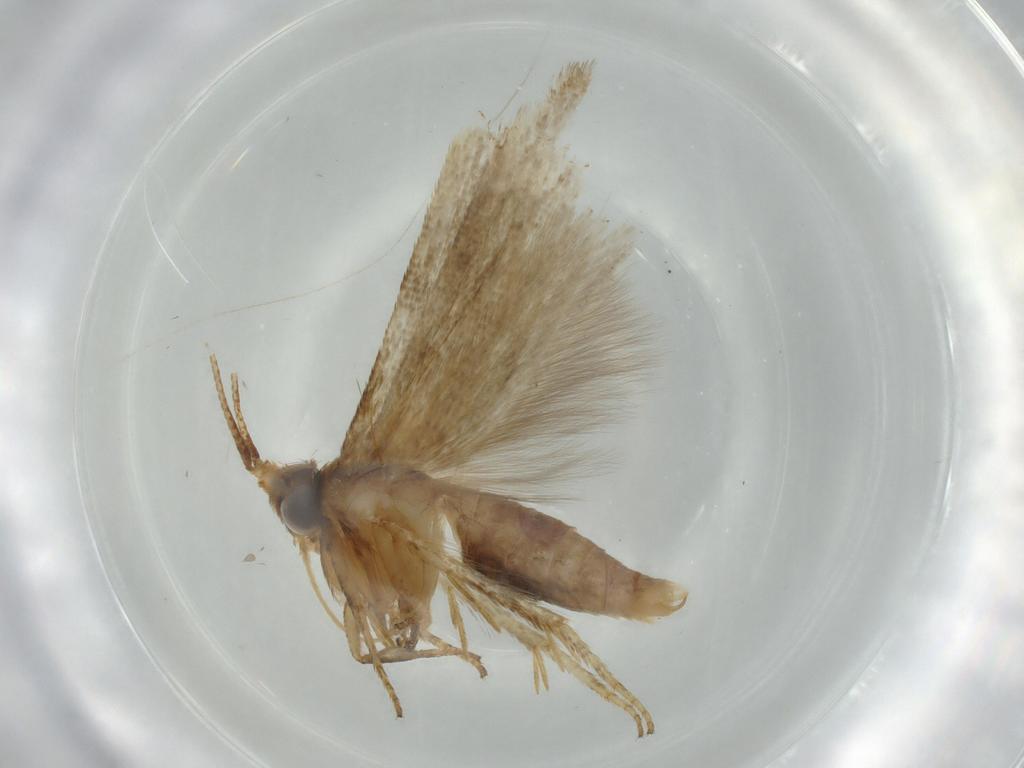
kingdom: Animalia
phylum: Arthropoda
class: Insecta
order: Lepidoptera
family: Blastobasidae
